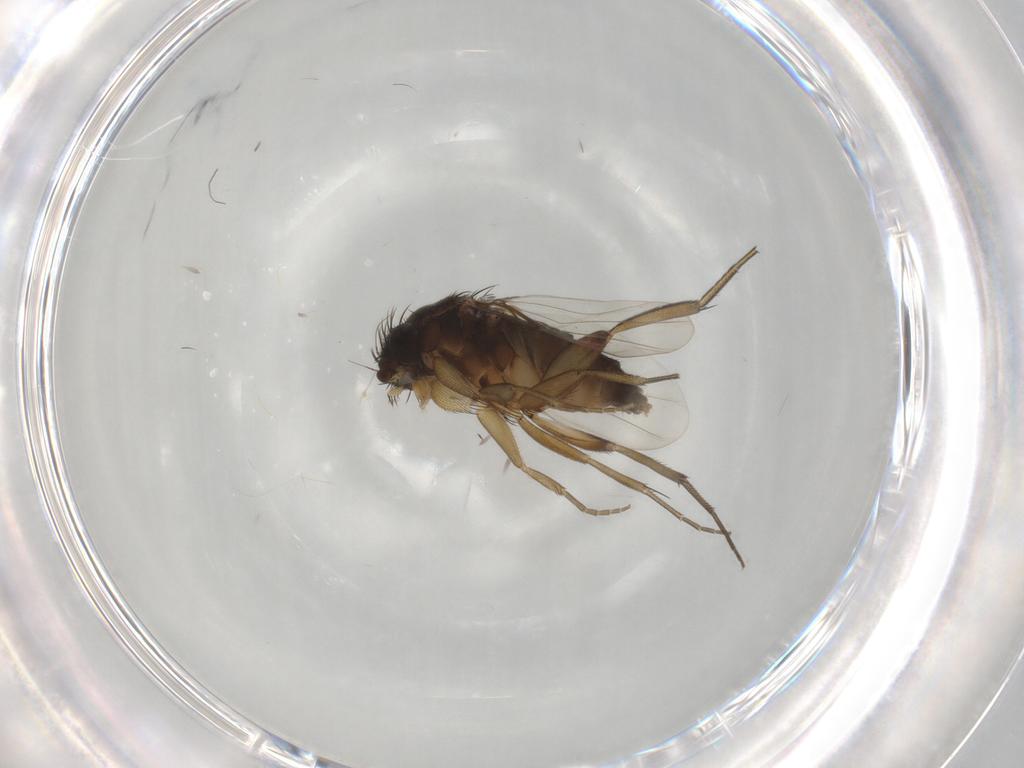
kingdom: Animalia
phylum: Arthropoda
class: Insecta
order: Diptera
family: Phoridae
